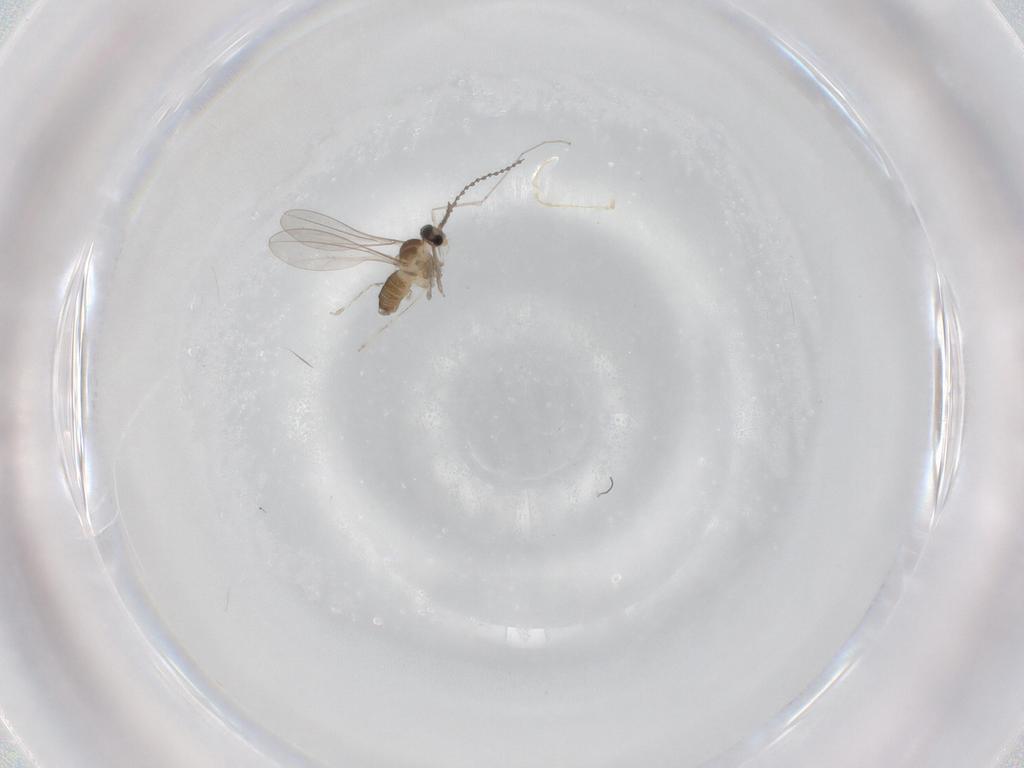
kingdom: Animalia
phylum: Arthropoda
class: Insecta
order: Diptera
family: Cecidomyiidae
